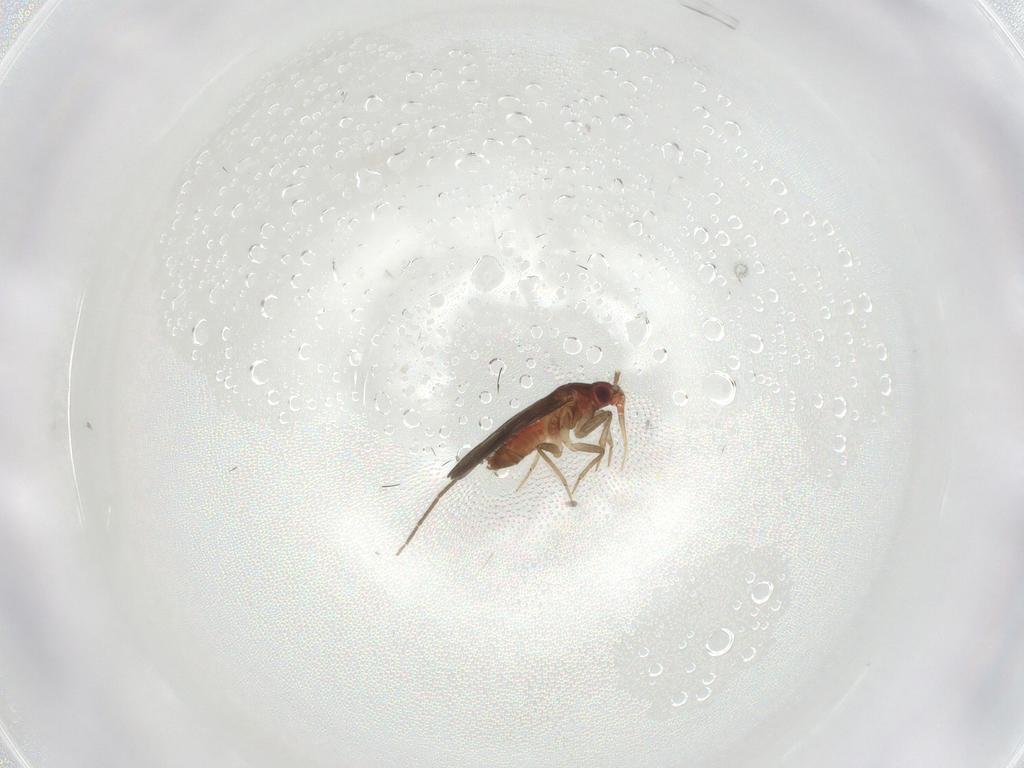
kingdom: Animalia
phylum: Arthropoda
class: Insecta
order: Hemiptera
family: Ceratocombidae
